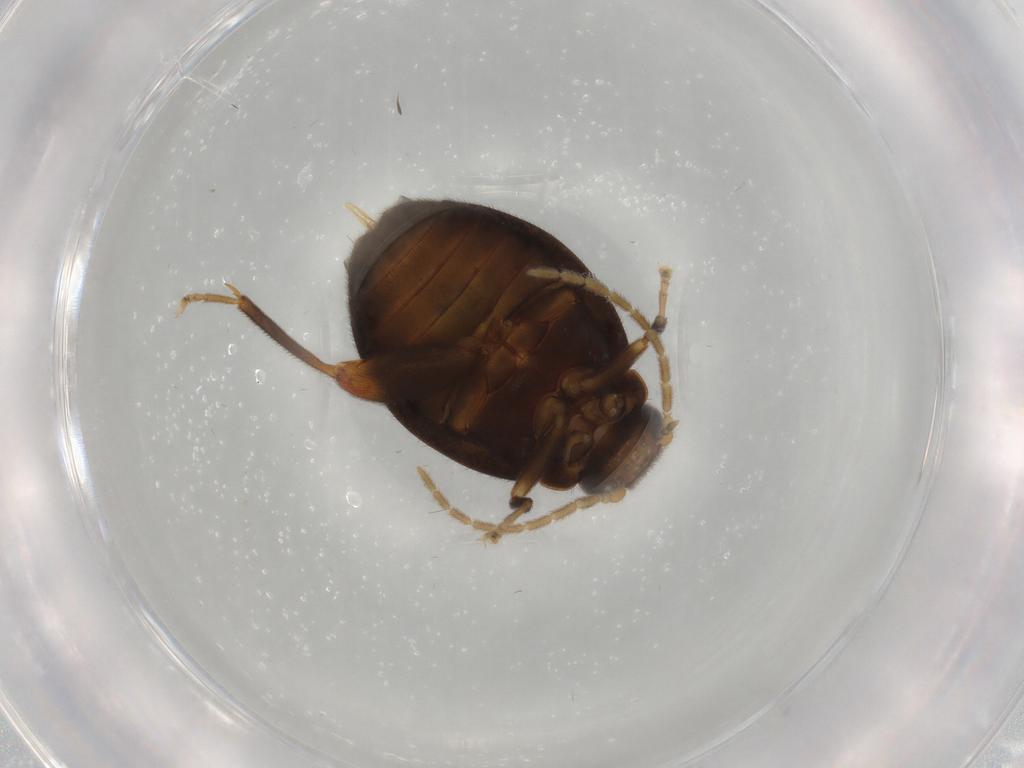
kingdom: Animalia
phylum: Arthropoda
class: Insecta
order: Coleoptera
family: Scirtidae
